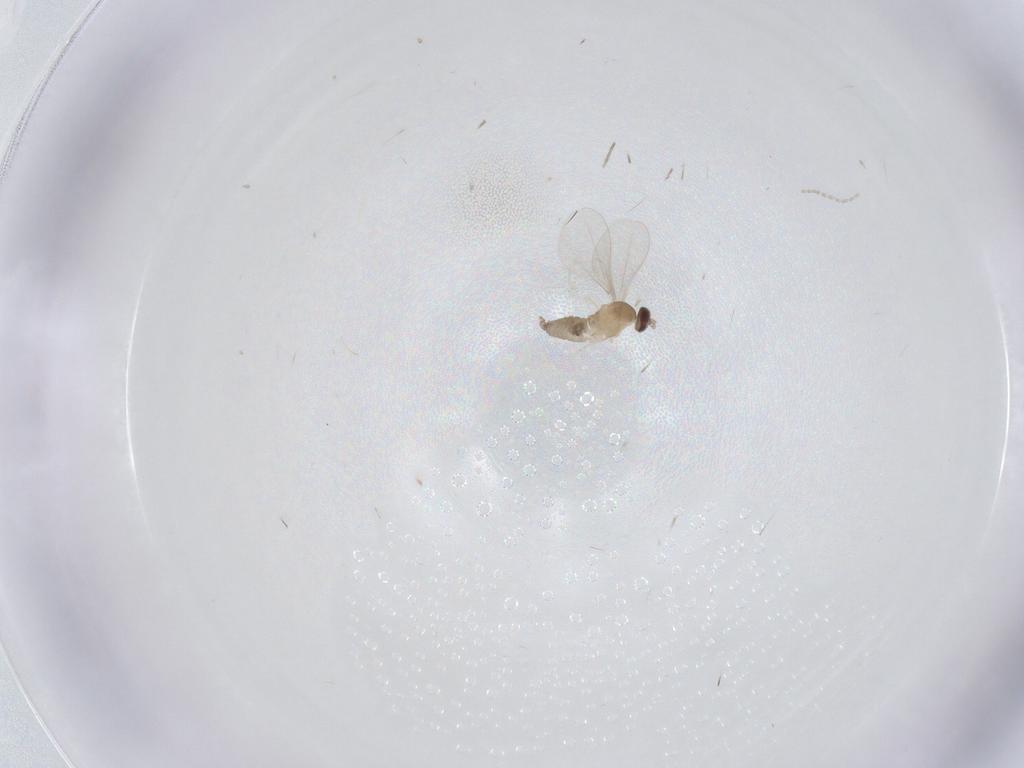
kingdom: Animalia
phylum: Arthropoda
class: Insecta
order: Diptera
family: Cecidomyiidae
